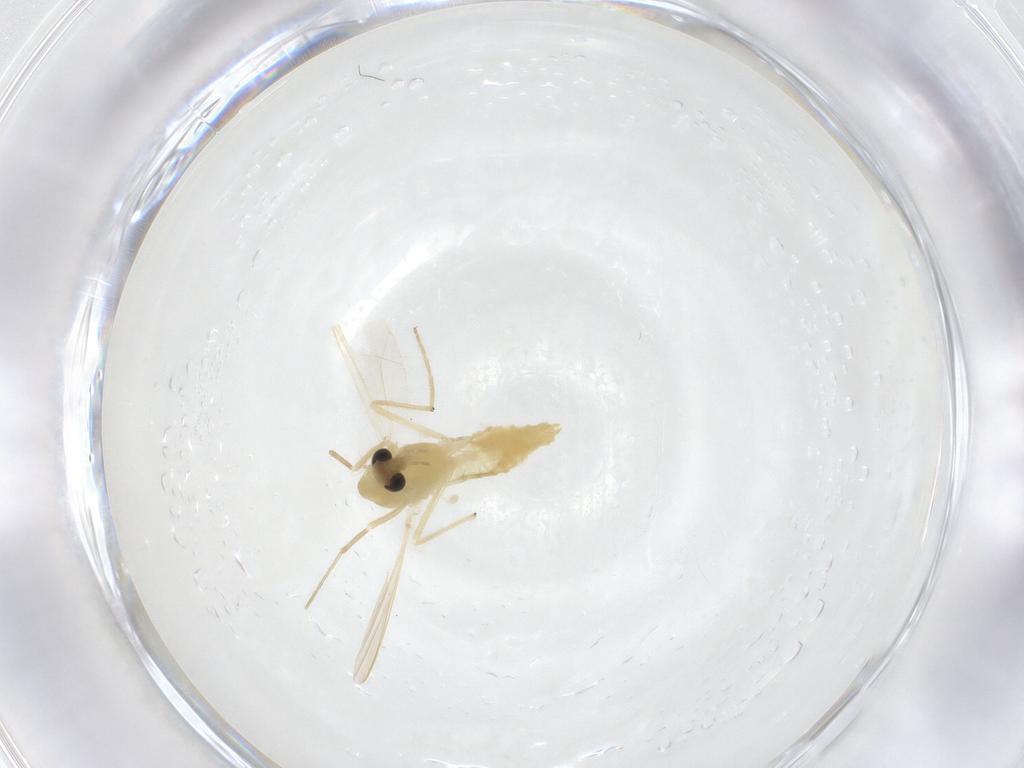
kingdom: Animalia
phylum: Arthropoda
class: Insecta
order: Diptera
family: Chironomidae
